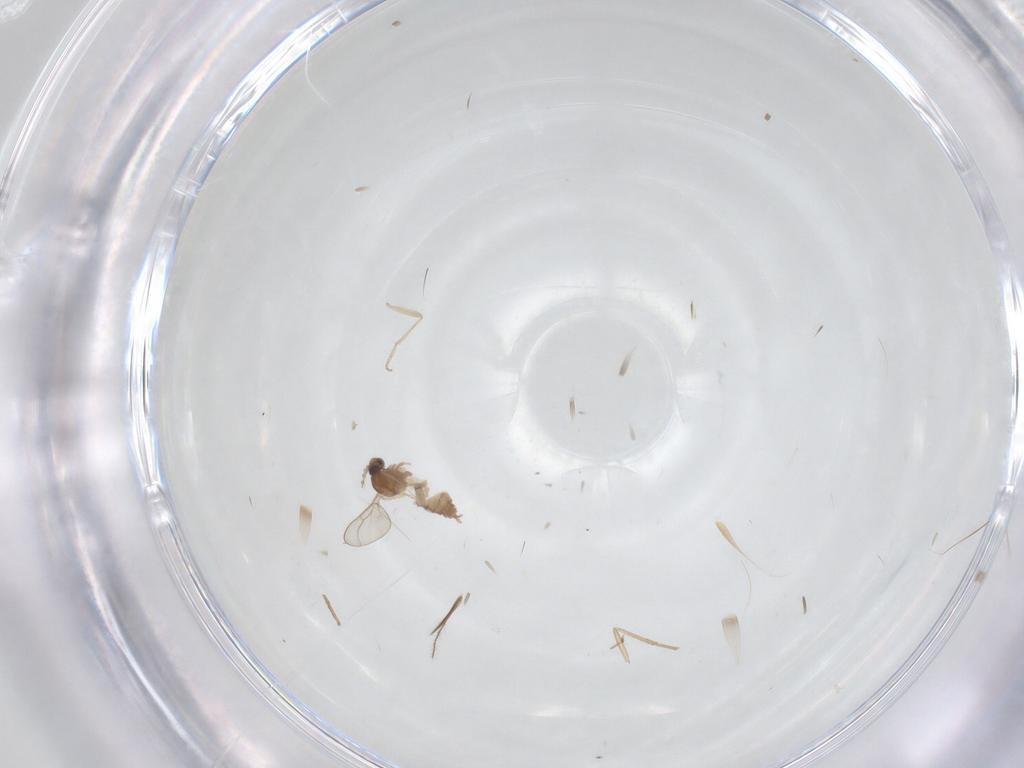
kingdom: Animalia
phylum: Arthropoda
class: Insecta
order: Diptera
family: Cecidomyiidae
